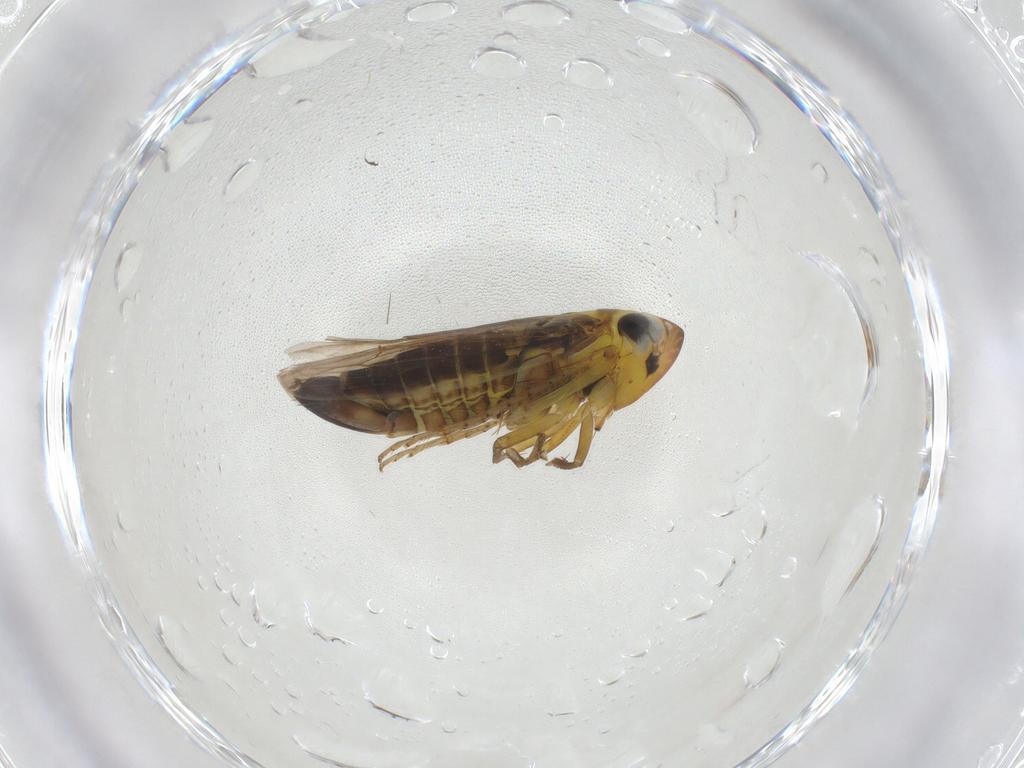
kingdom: Animalia
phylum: Arthropoda
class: Insecta
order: Hemiptera
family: Cicadellidae
